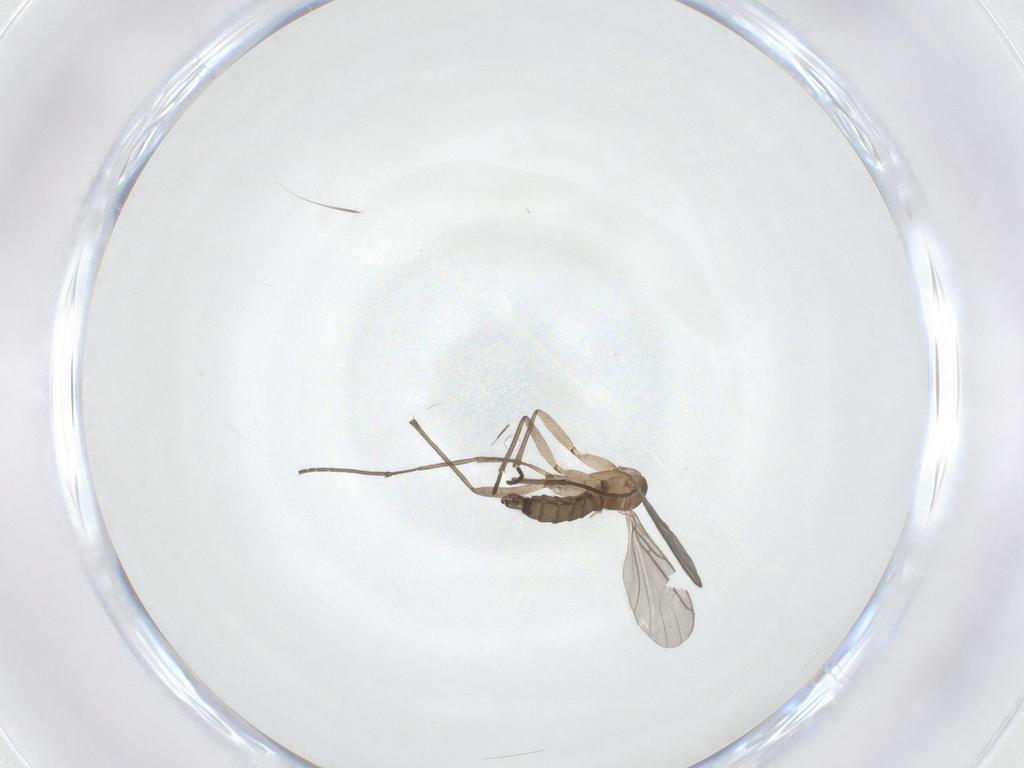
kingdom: Animalia
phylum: Arthropoda
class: Insecta
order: Diptera
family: Sciaridae
